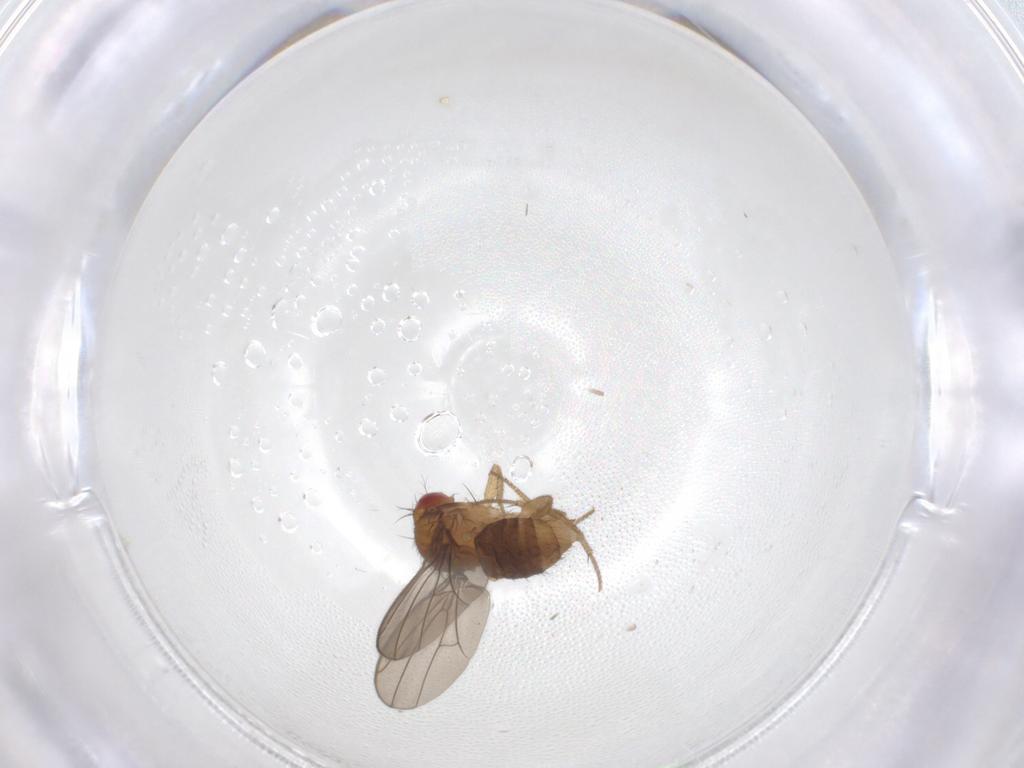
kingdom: Animalia
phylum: Arthropoda
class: Insecta
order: Diptera
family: Drosophilidae
